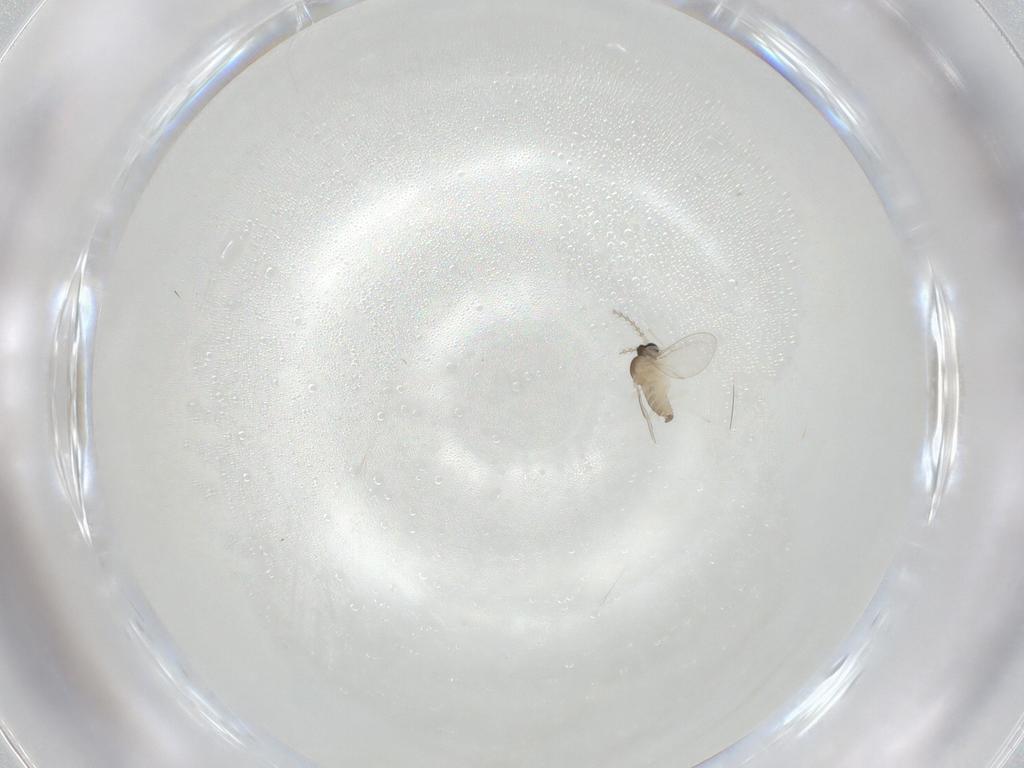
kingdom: Animalia
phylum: Arthropoda
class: Insecta
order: Diptera
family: Cecidomyiidae
